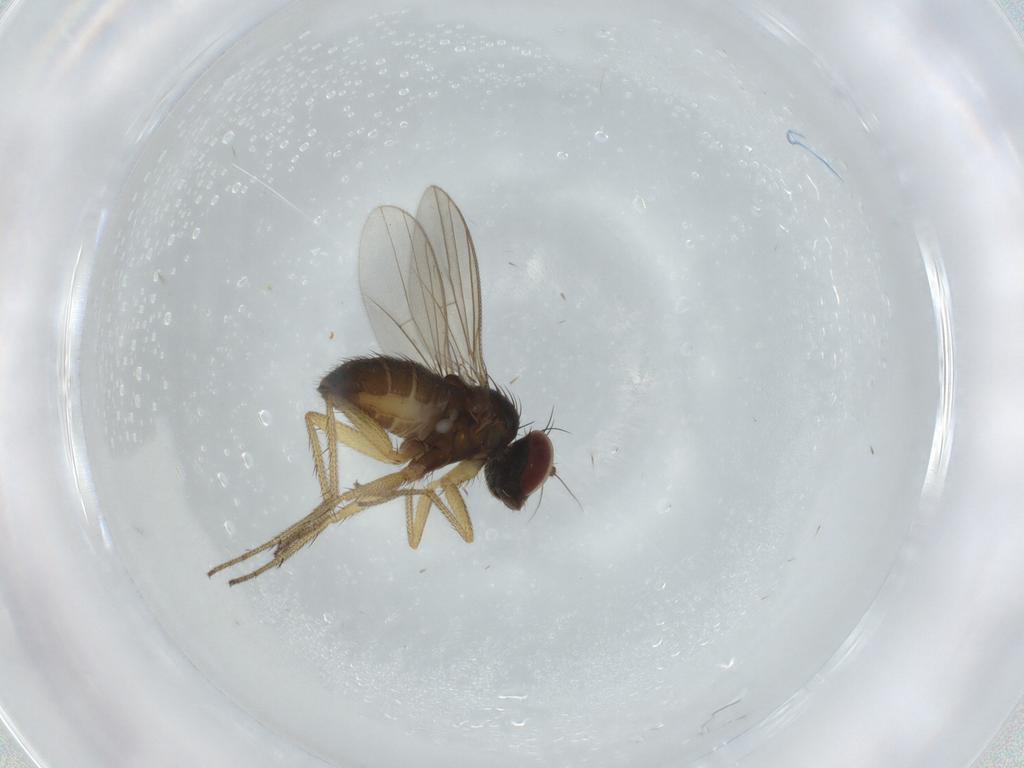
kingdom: Animalia
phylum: Arthropoda
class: Insecta
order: Diptera
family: Dolichopodidae
